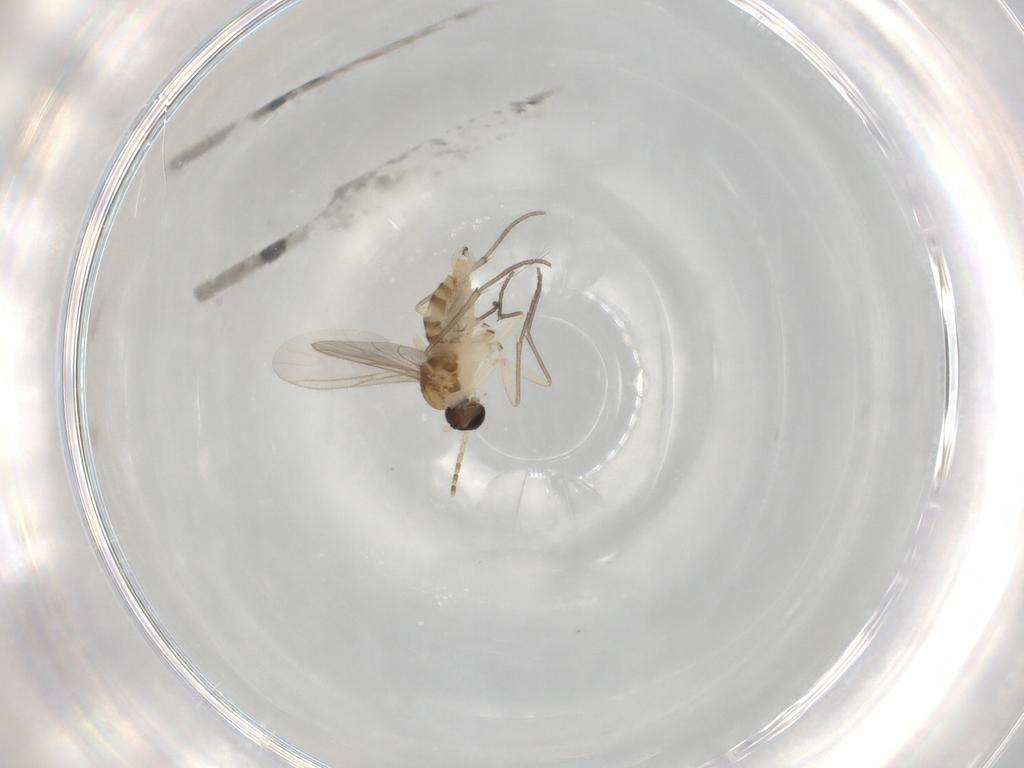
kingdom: Animalia
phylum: Arthropoda
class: Insecta
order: Diptera
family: Sciaridae
